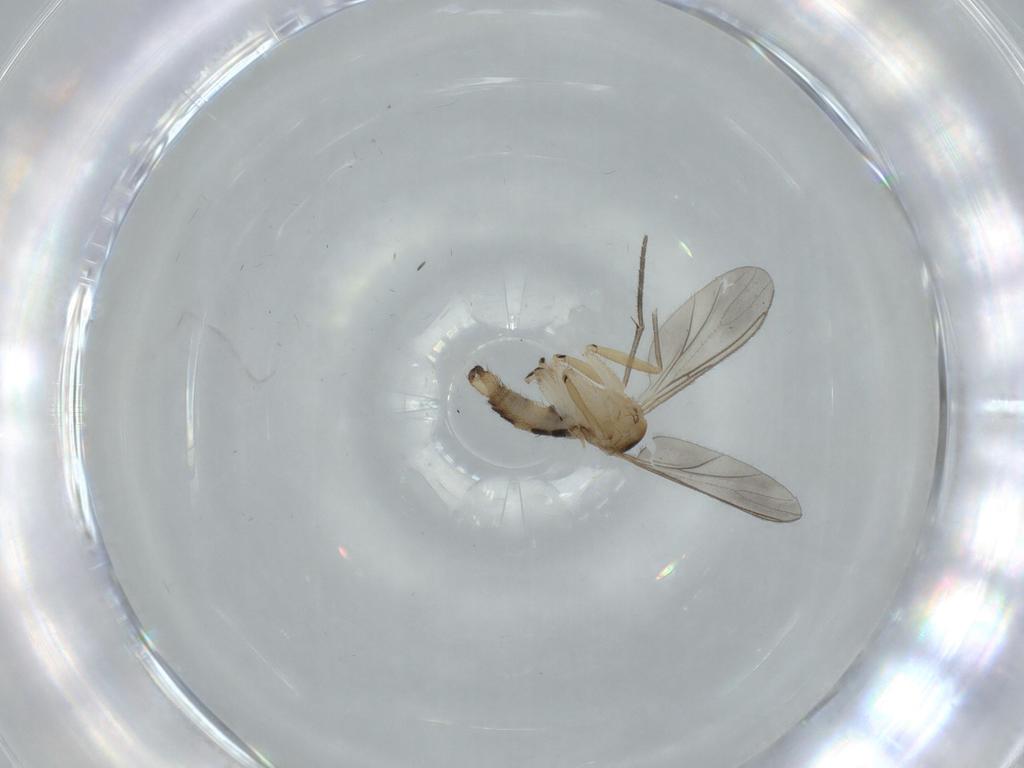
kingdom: Animalia
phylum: Arthropoda
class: Insecta
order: Diptera
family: Sciaridae
